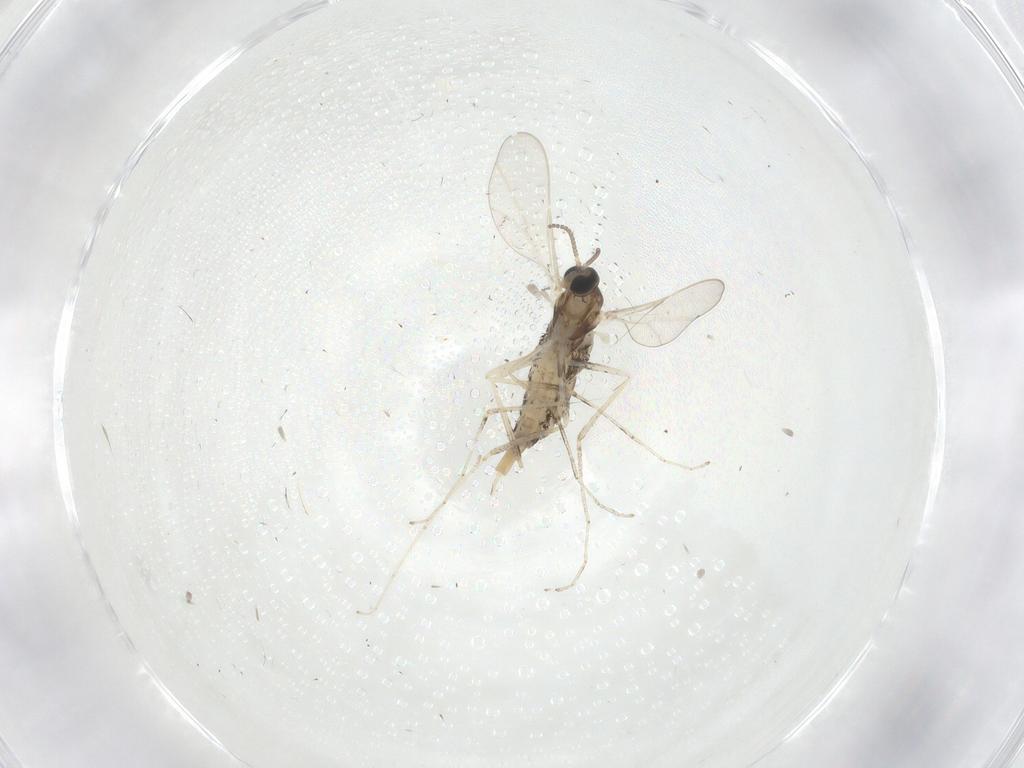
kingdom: Animalia
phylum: Arthropoda
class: Insecta
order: Diptera
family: Cecidomyiidae
